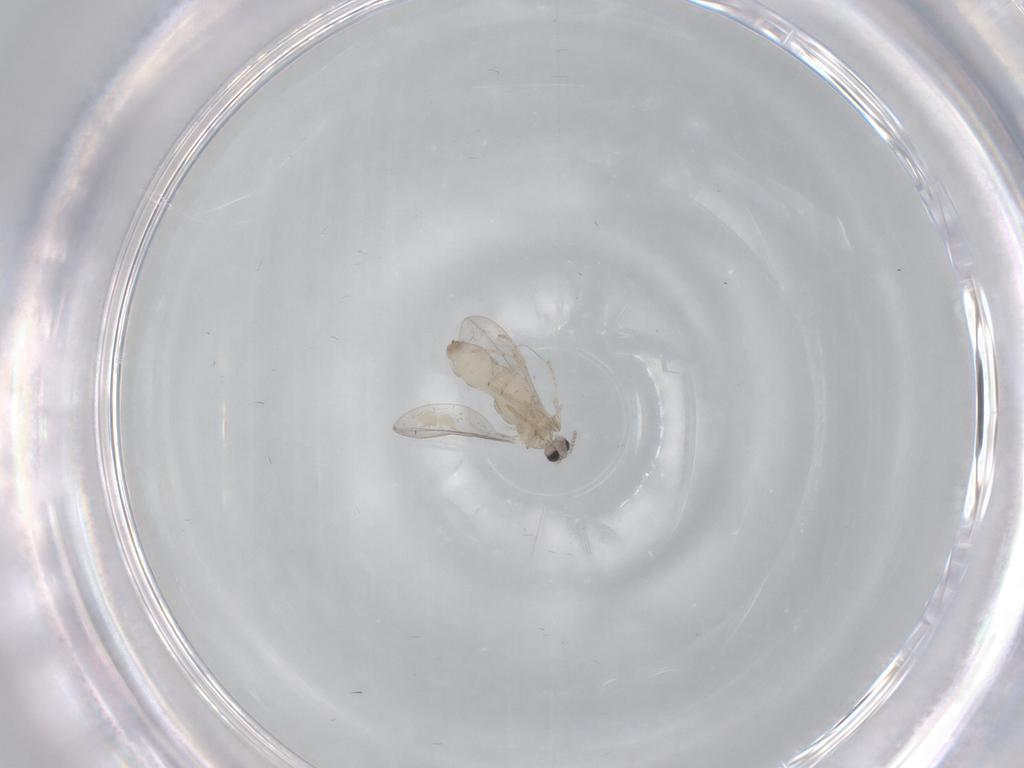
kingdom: Animalia
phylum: Arthropoda
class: Insecta
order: Diptera
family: Cecidomyiidae
